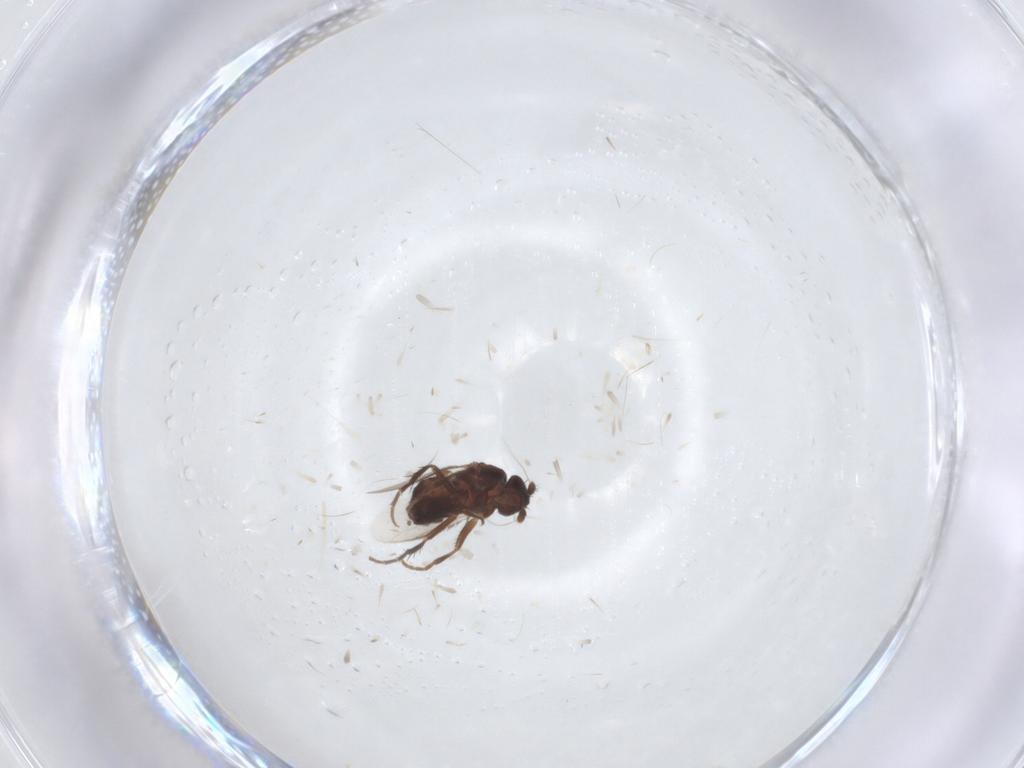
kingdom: Animalia
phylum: Arthropoda
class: Insecta
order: Diptera
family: Sphaeroceridae
